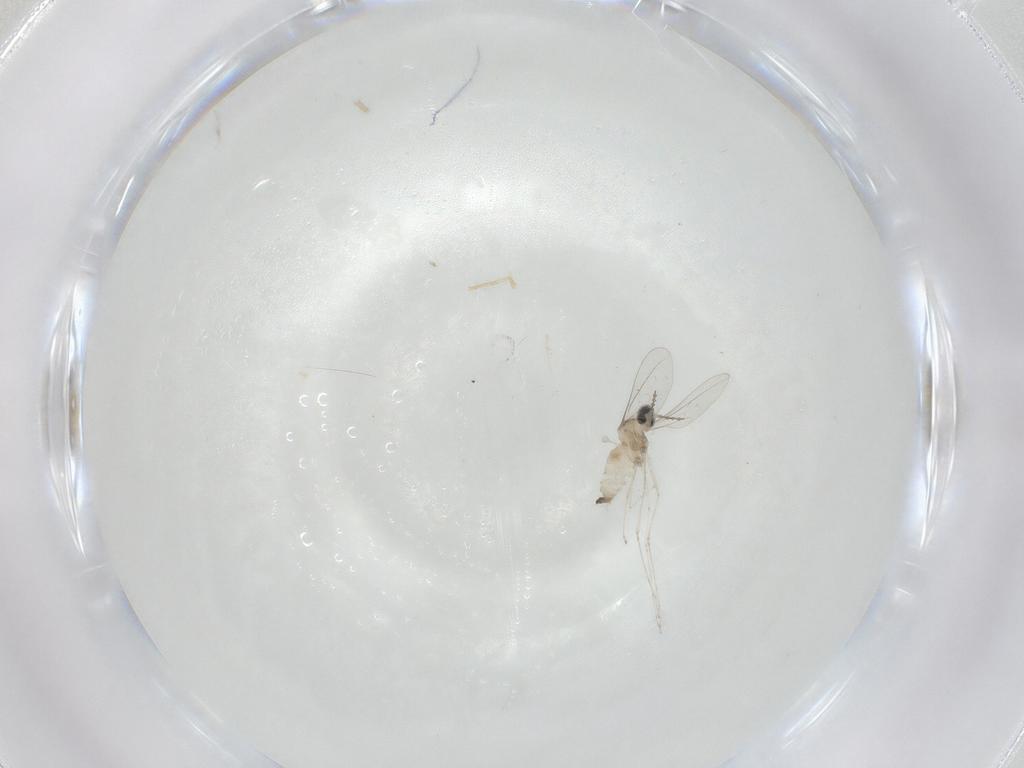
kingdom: Animalia
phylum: Arthropoda
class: Insecta
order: Diptera
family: Cecidomyiidae
